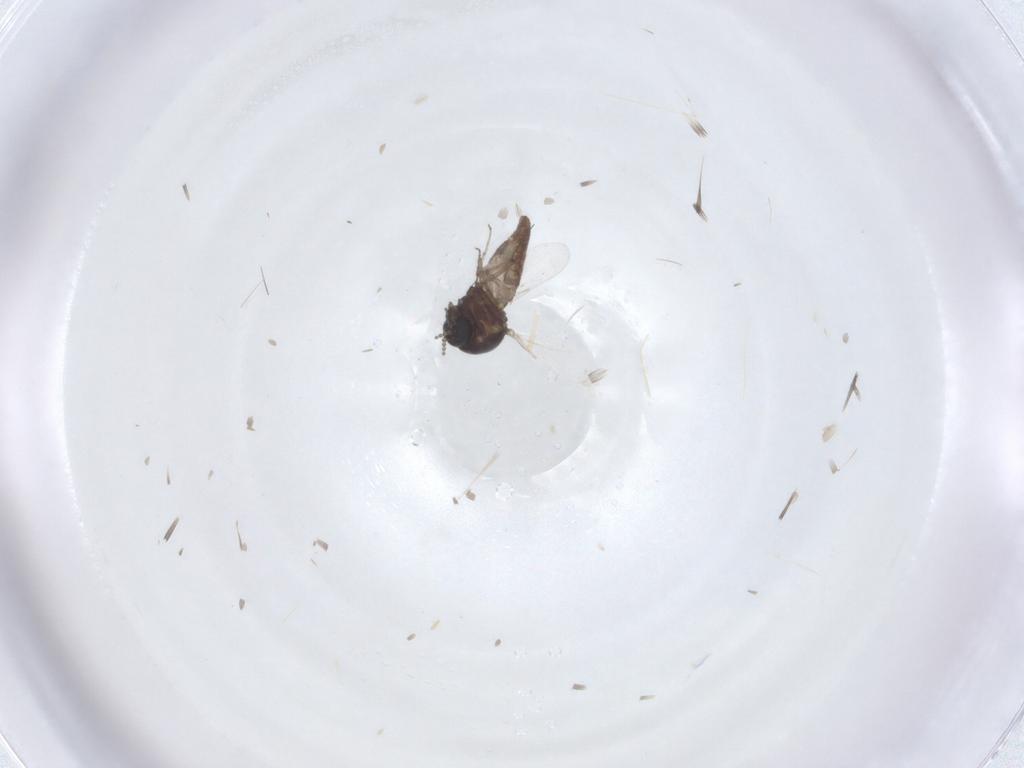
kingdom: Animalia
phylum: Arthropoda
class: Insecta
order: Diptera
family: Ceratopogonidae
